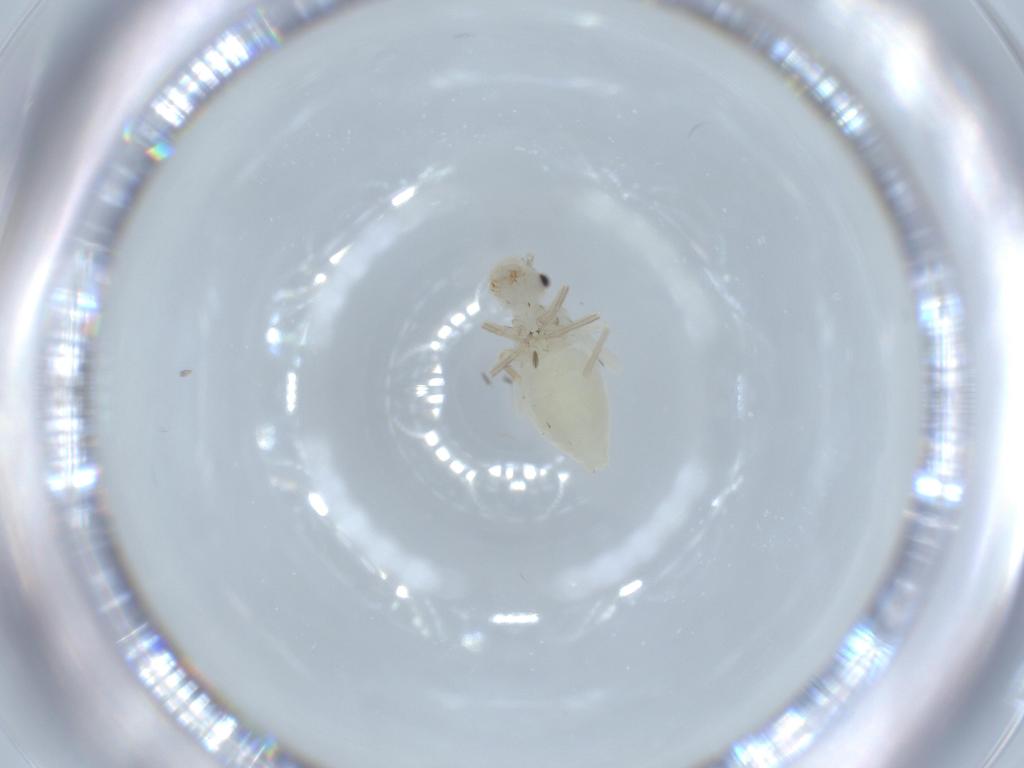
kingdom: Animalia
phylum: Arthropoda
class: Insecta
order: Psocodea
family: Caeciliusidae
